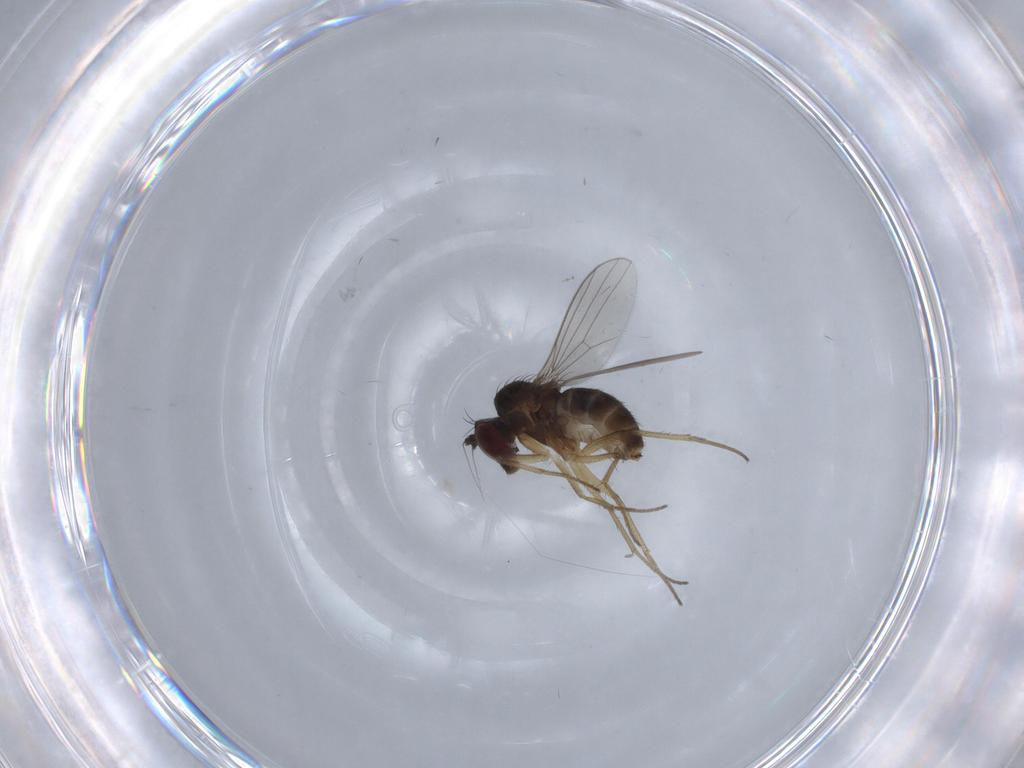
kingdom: Animalia
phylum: Arthropoda
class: Insecta
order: Diptera
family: Dolichopodidae
